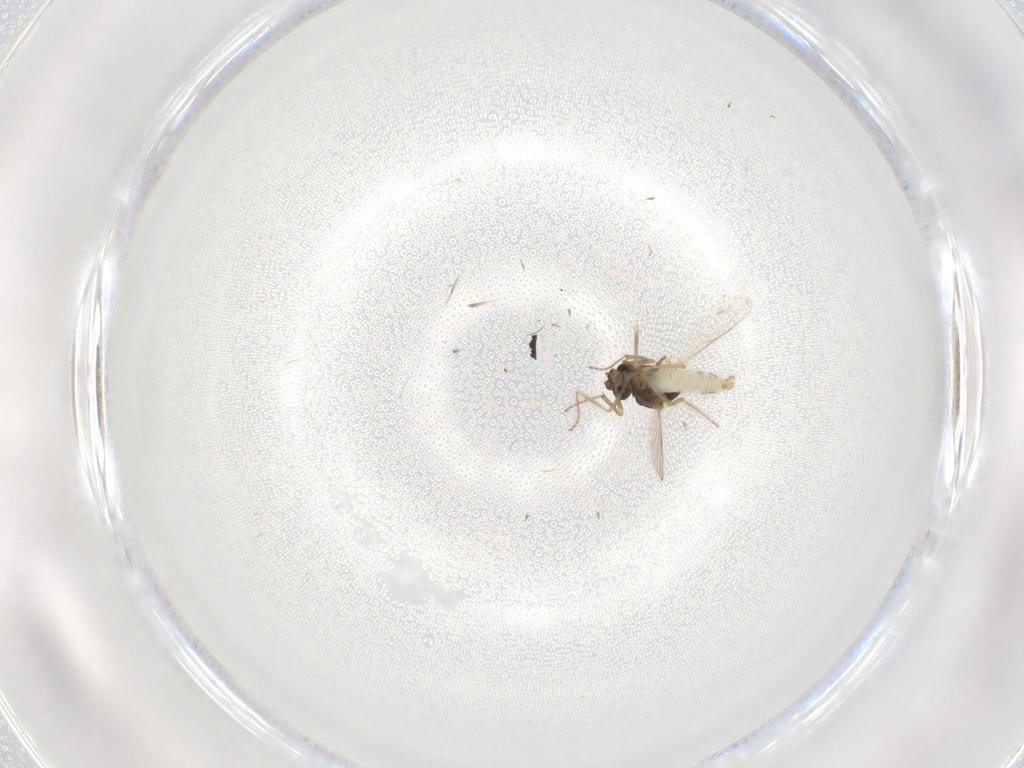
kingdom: Animalia
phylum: Arthropoda
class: Insecta
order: Diptera
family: Ceratopogonidae
